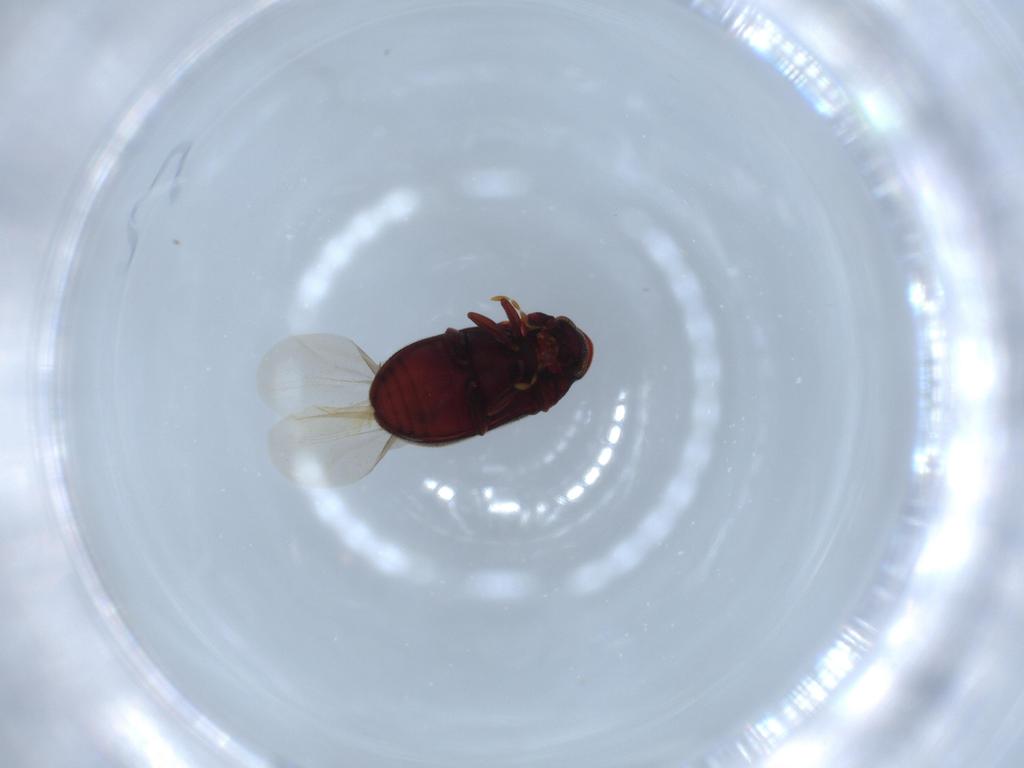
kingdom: Animalia
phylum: Arthropoda
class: Insecta
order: Coleoptera
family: Anobiidae
